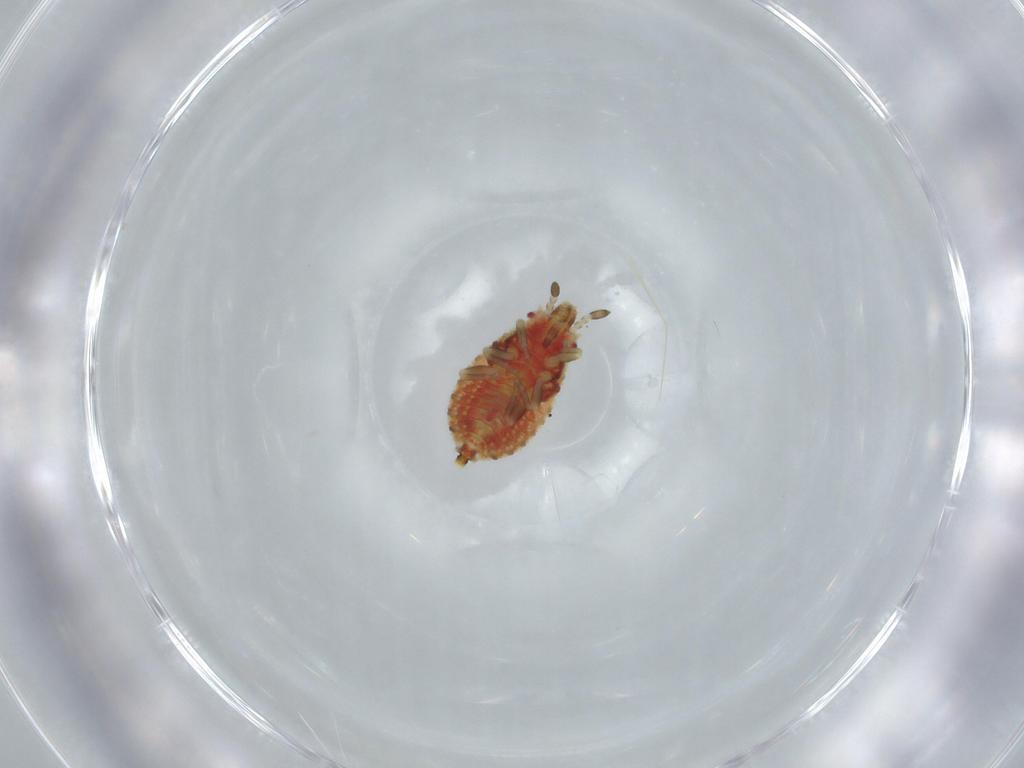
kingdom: Animalia
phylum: Arthropoda
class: Insecta
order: Hemiptera
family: Aradidae
